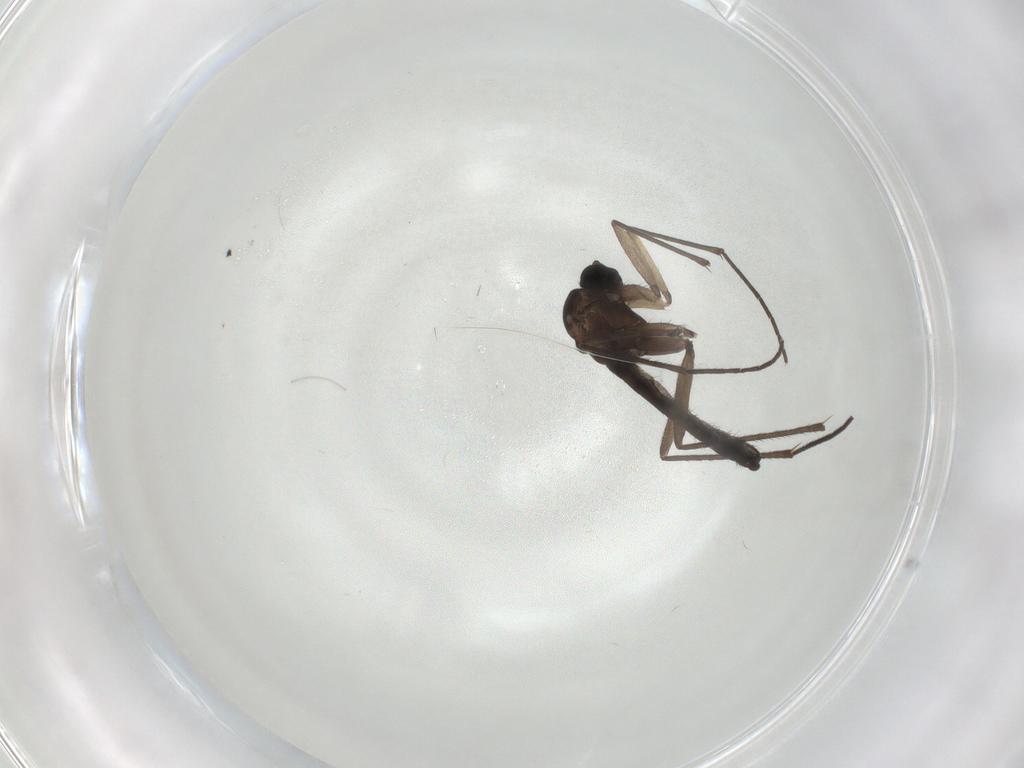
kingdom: Animalia
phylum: Arthropoda
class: Insecta
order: Diptera
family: Sciaridae
